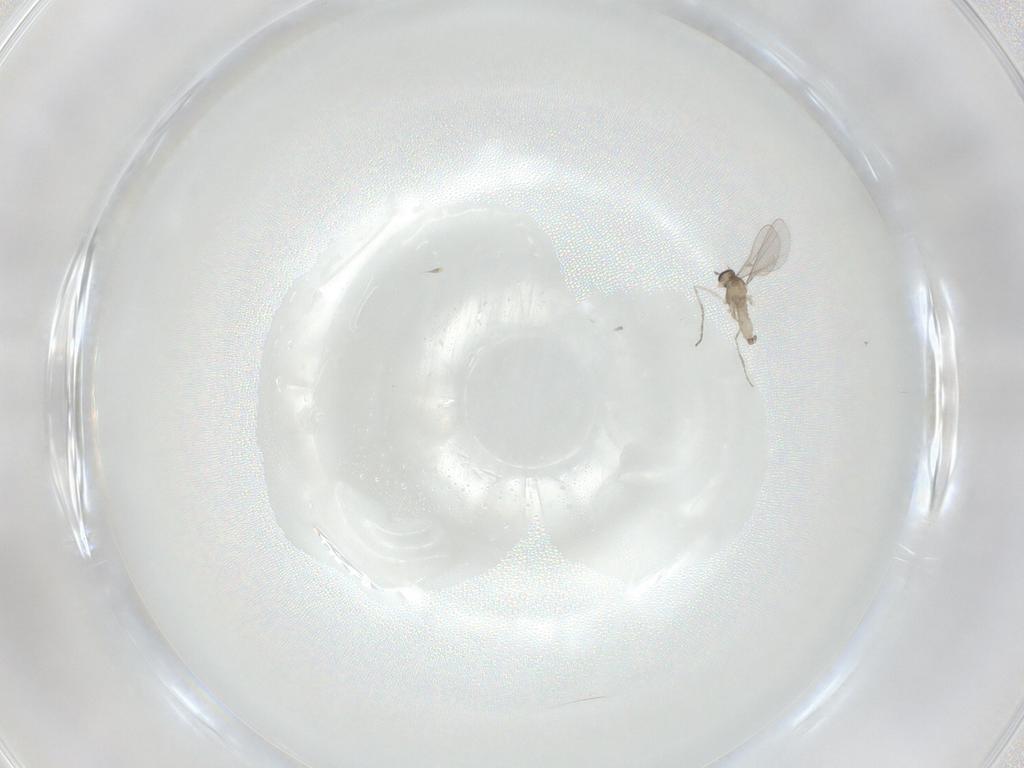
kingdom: Animalia
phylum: Arthropoda
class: Insecta
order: Diptera
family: Cecidomyiidae
